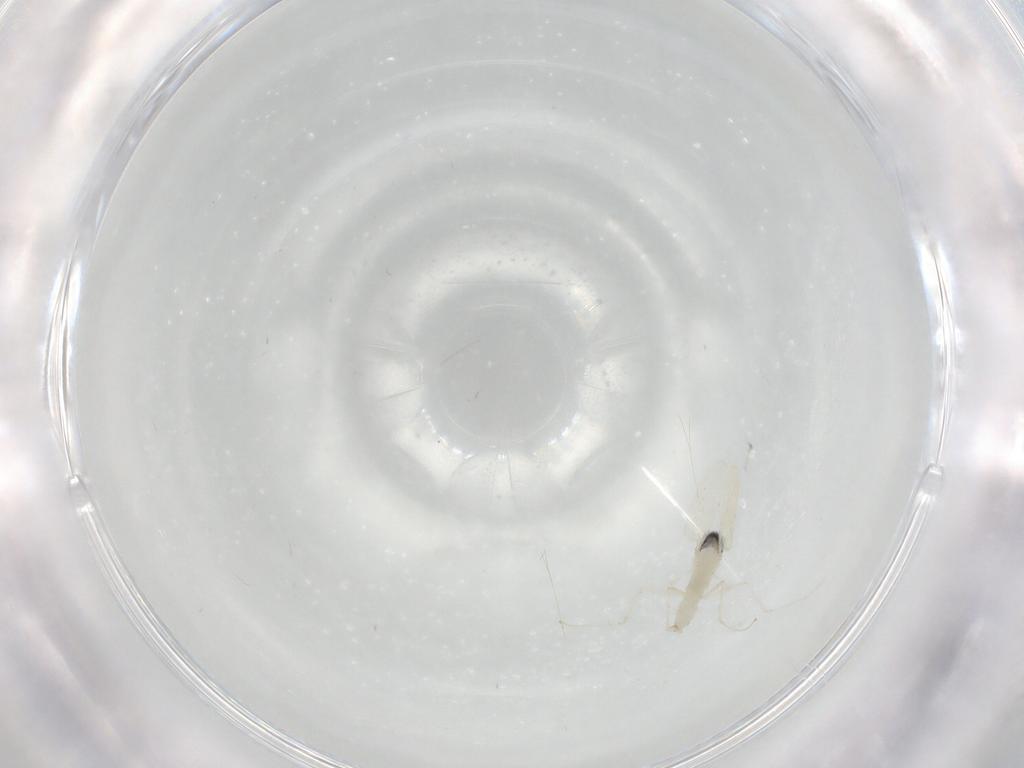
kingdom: Animalia
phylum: Arthropoda
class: Insecta
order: Diptera
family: Cecidomyiidae
